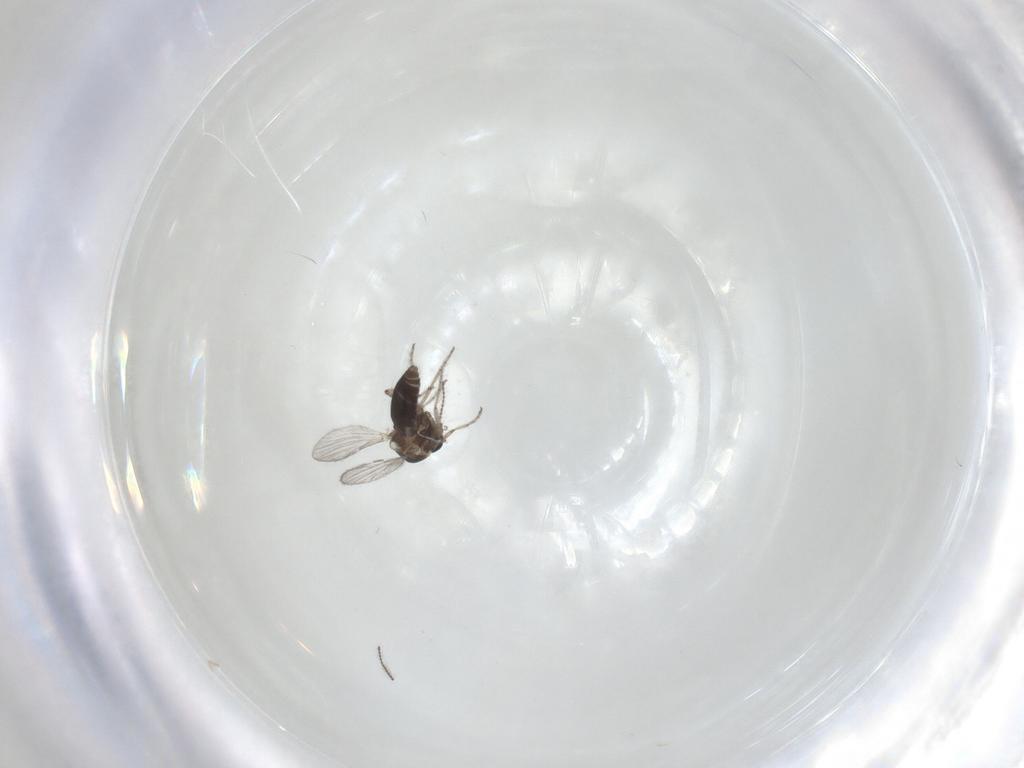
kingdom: Animalia
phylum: Arthropoda
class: Insecta
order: Diptera
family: Ceratopogonidae
